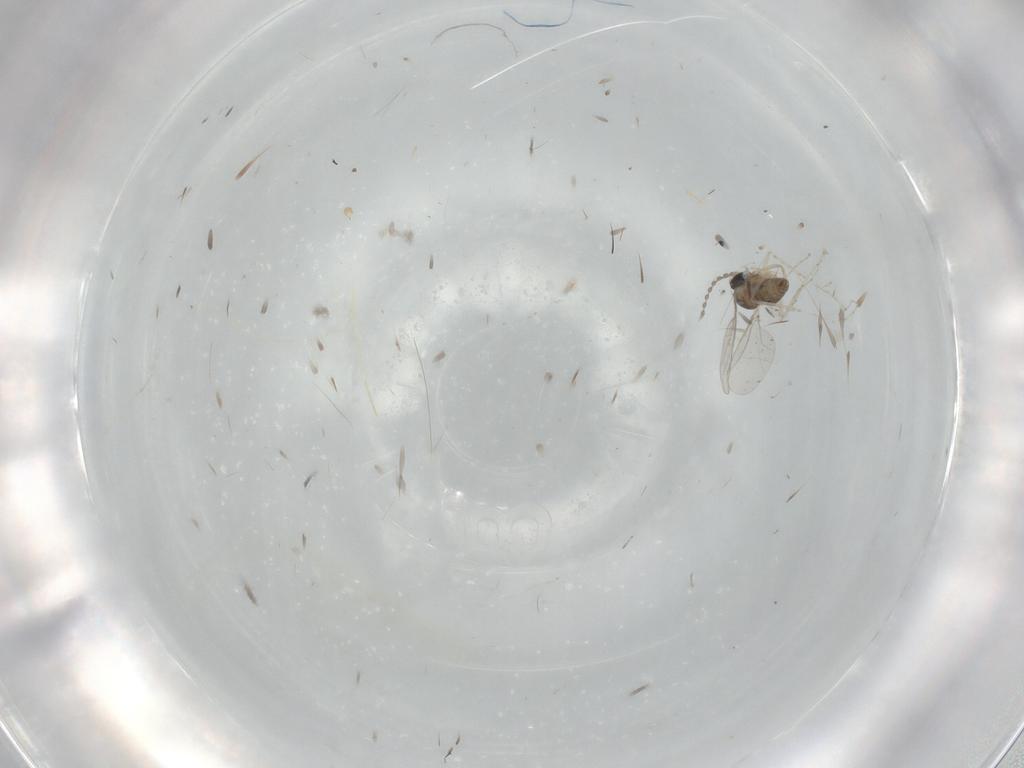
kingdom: Animalia
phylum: Arthropoda
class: Insecta
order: Diptera
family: Cecidomyiidae
